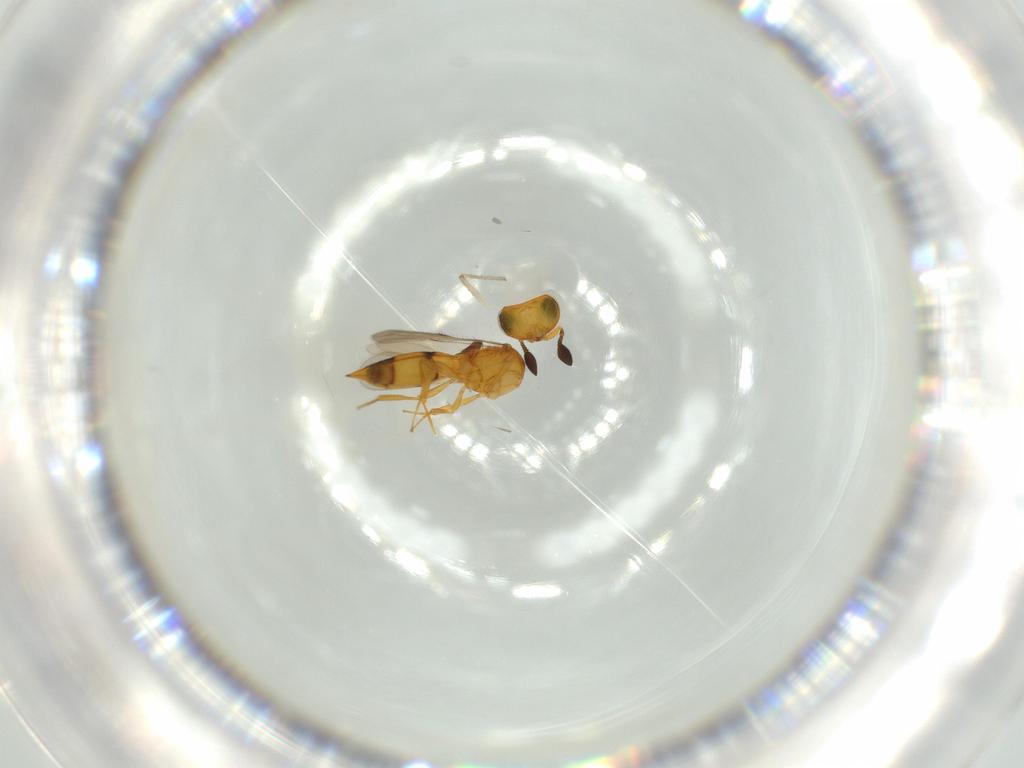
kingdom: Animalia
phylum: Arthropoda
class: Insecta
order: Hymenoptera
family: Scelionidae
